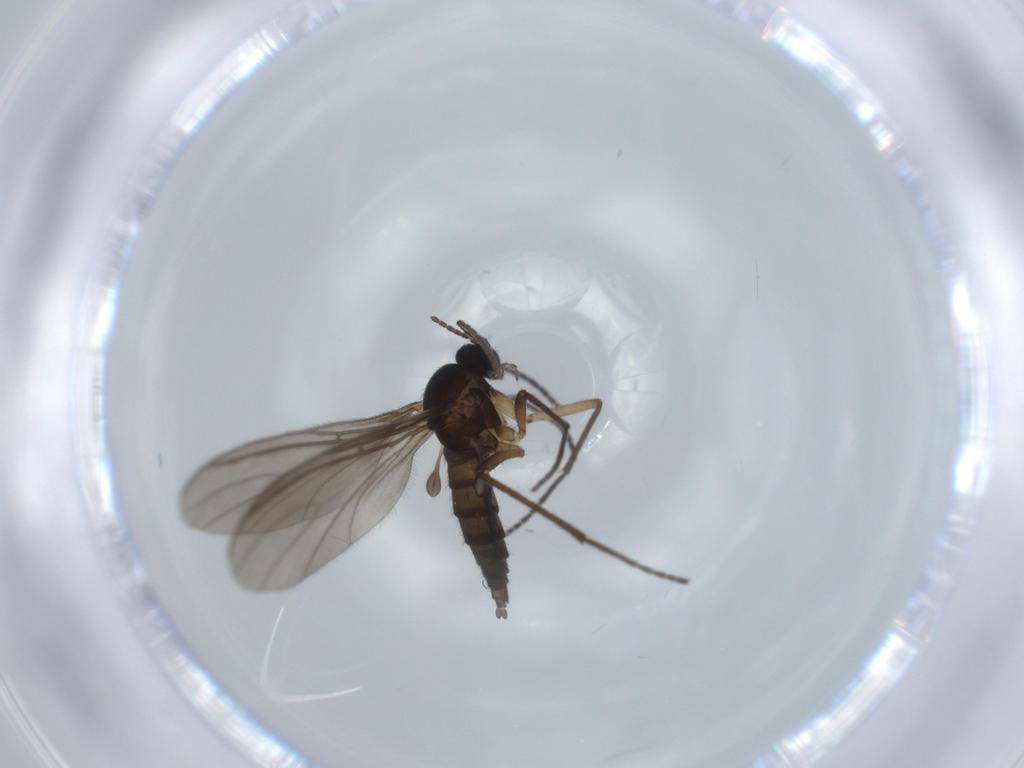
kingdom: Animalia
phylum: Arthropoda
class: Insecta
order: Diptera
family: Sciaridae
